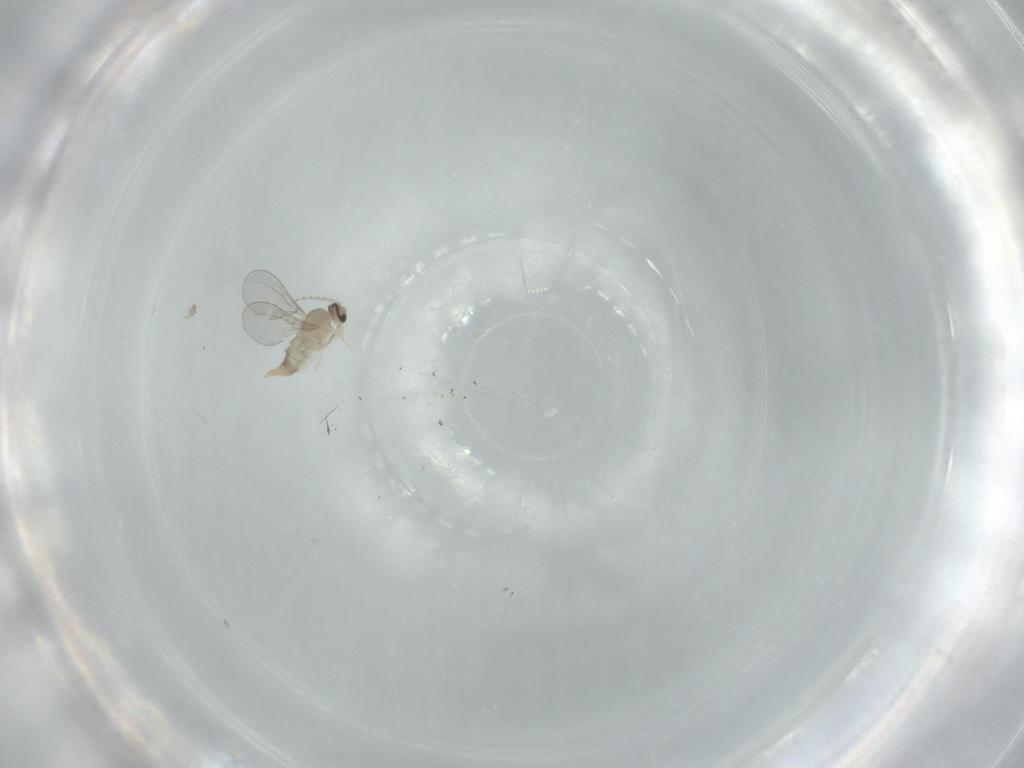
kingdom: Animalia
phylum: Arthropoda
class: Insecta
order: Diptera
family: Cecidomyiidae
